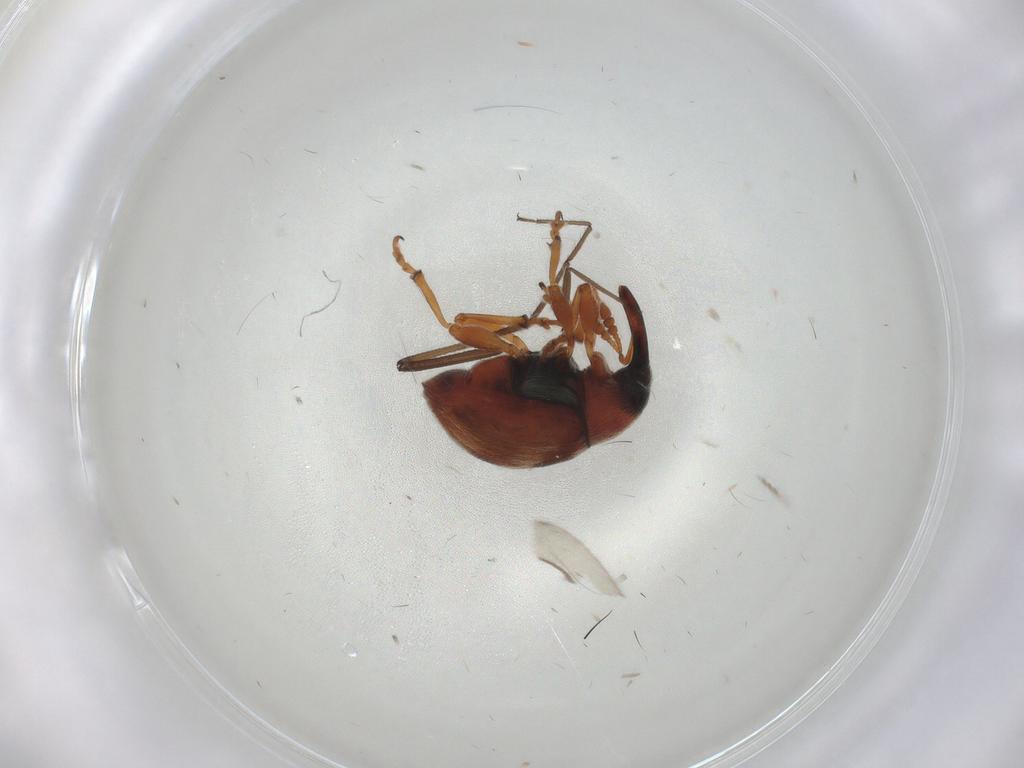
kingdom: Animalia
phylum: Arthropoda
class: Insecta
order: Coleoptera
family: Brentidae
